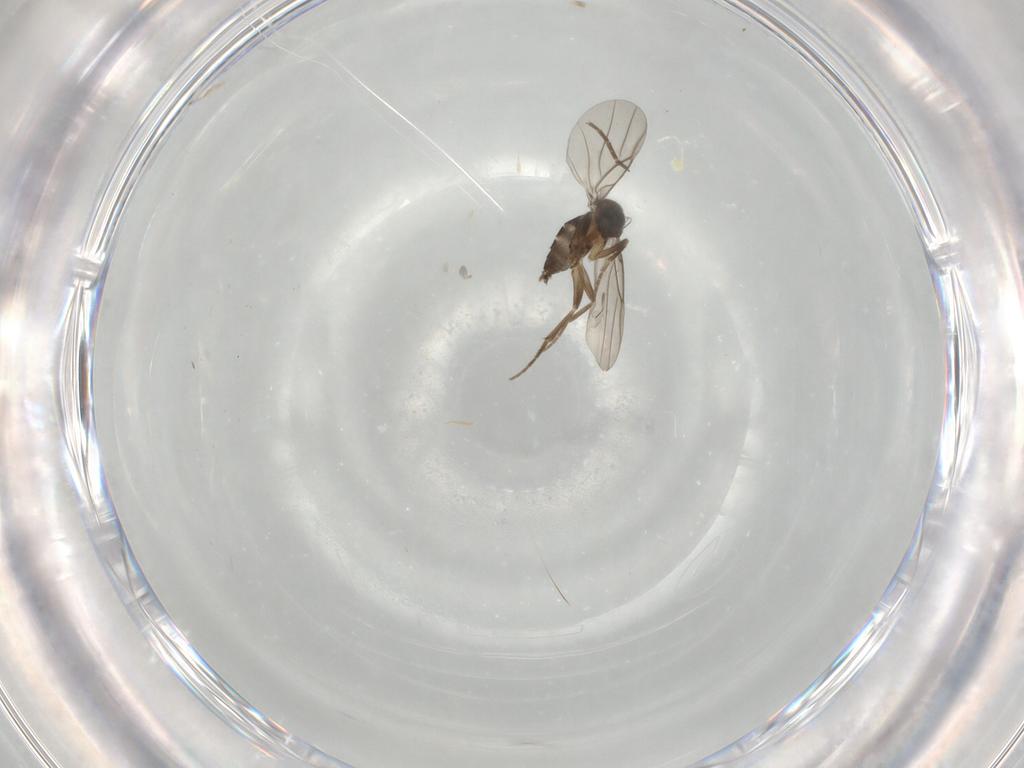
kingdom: Animalia
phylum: Arthropoda
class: Insecta
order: Diptera
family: Phoridae
